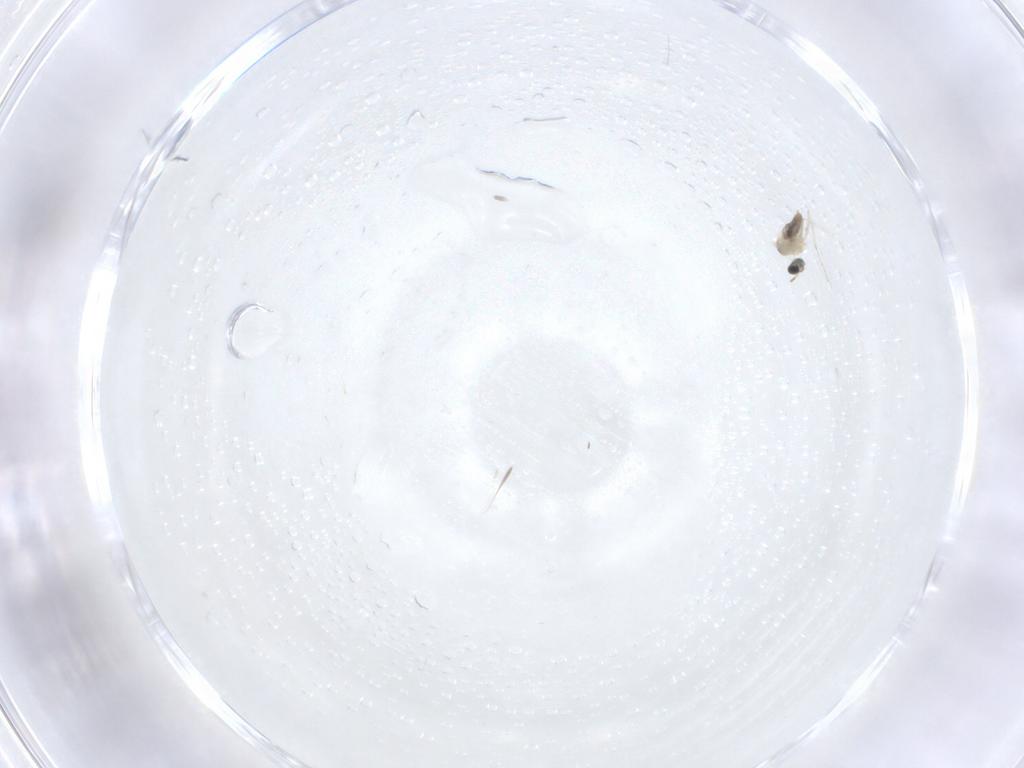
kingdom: Animalia
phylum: Arthropoda
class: Insecta
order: Diptera
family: Cecidomyiidae
